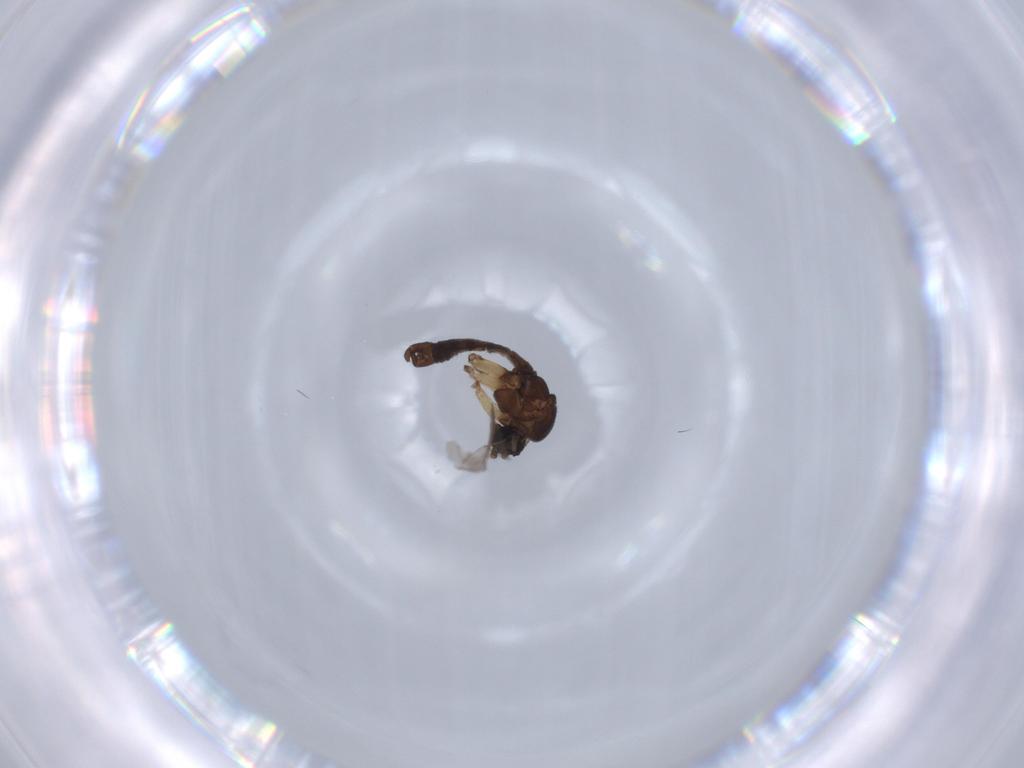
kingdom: Animalia
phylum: Arthropoda
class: Insecta
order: Diptera
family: Sciaridae
